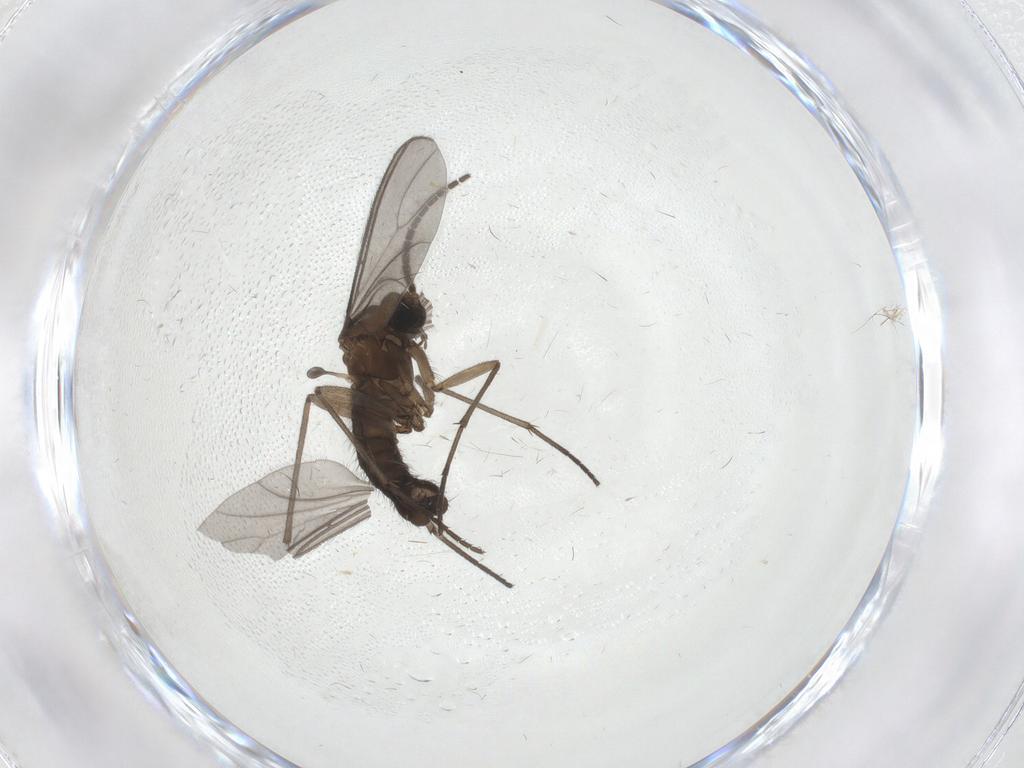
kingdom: Animalia
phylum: Arthropoda
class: Insecta
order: Diptera
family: Sciaridae
